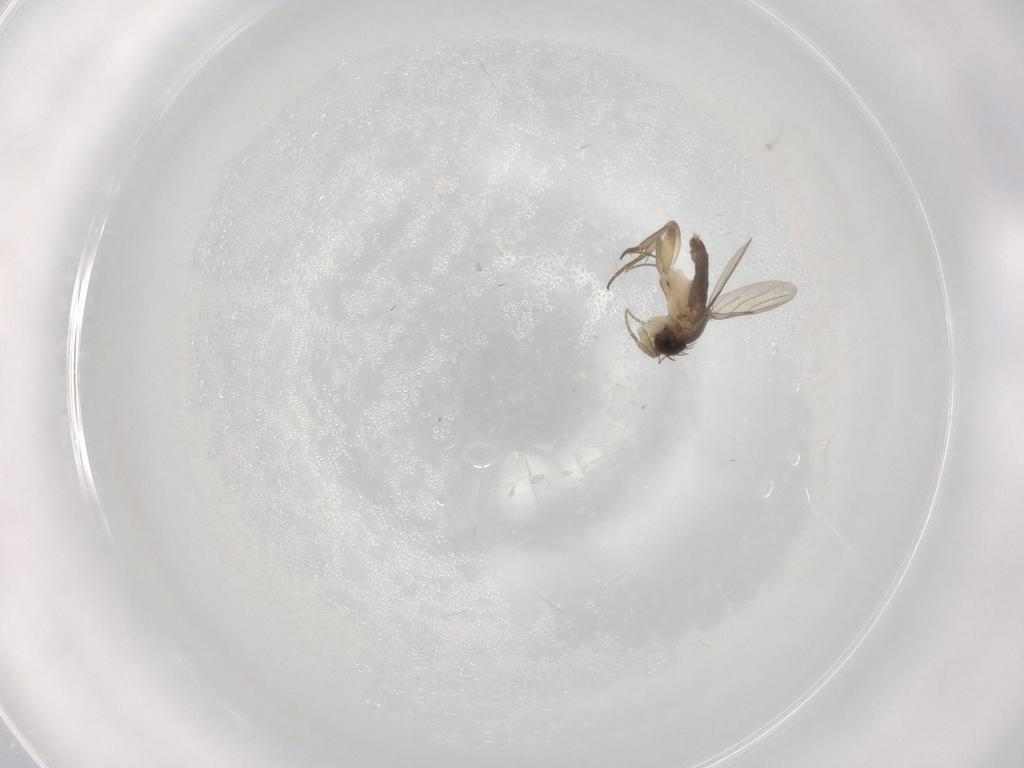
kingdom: Animalia
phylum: Arthropoda
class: Insecta
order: Diptera
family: Phoridae
